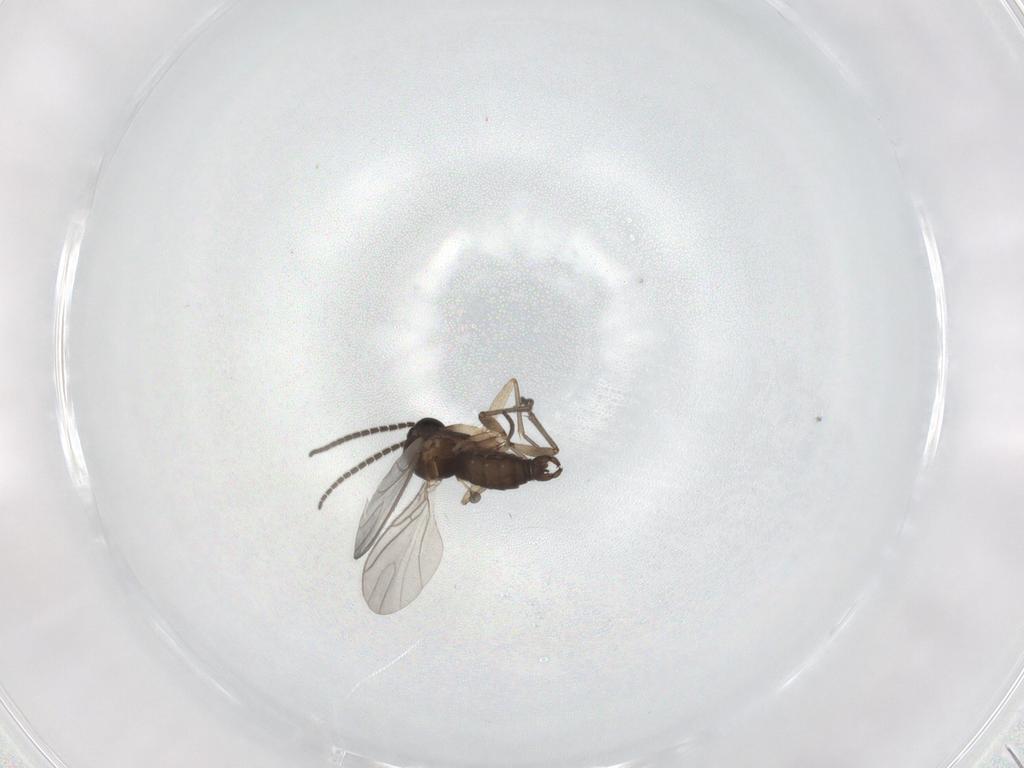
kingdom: Animalia
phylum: Arthropoda
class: Insecta
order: Diptera
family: Sciaridae
